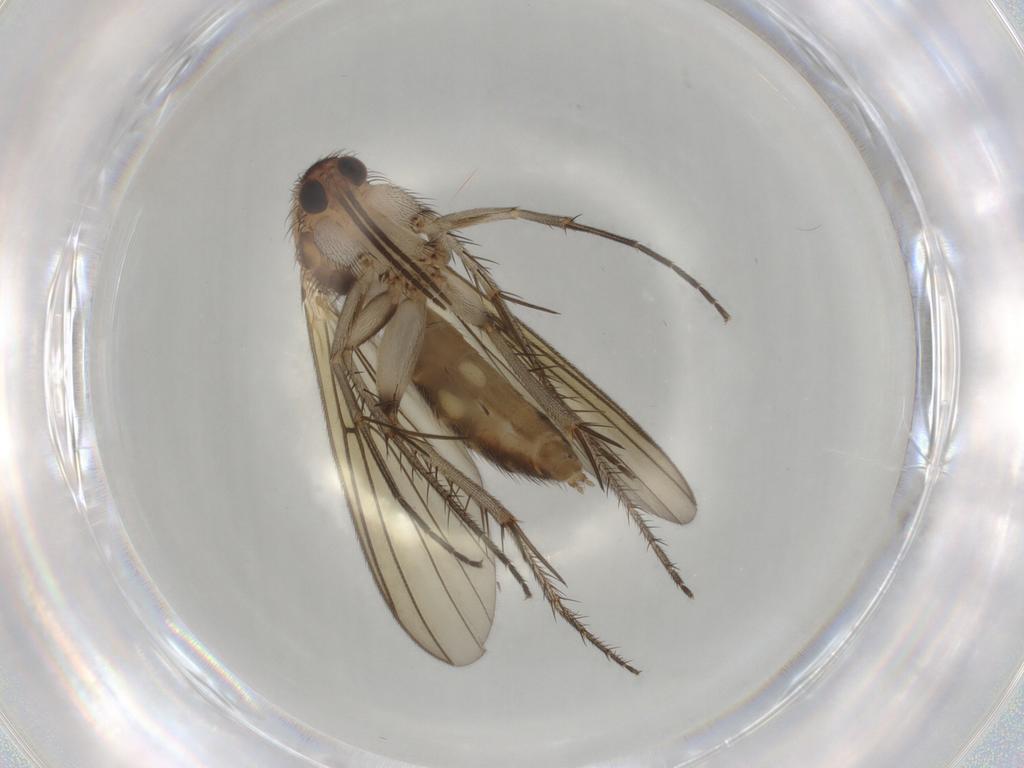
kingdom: Animalia
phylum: Arthropoda
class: Insecta
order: Diptera
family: Mycetophilidae
